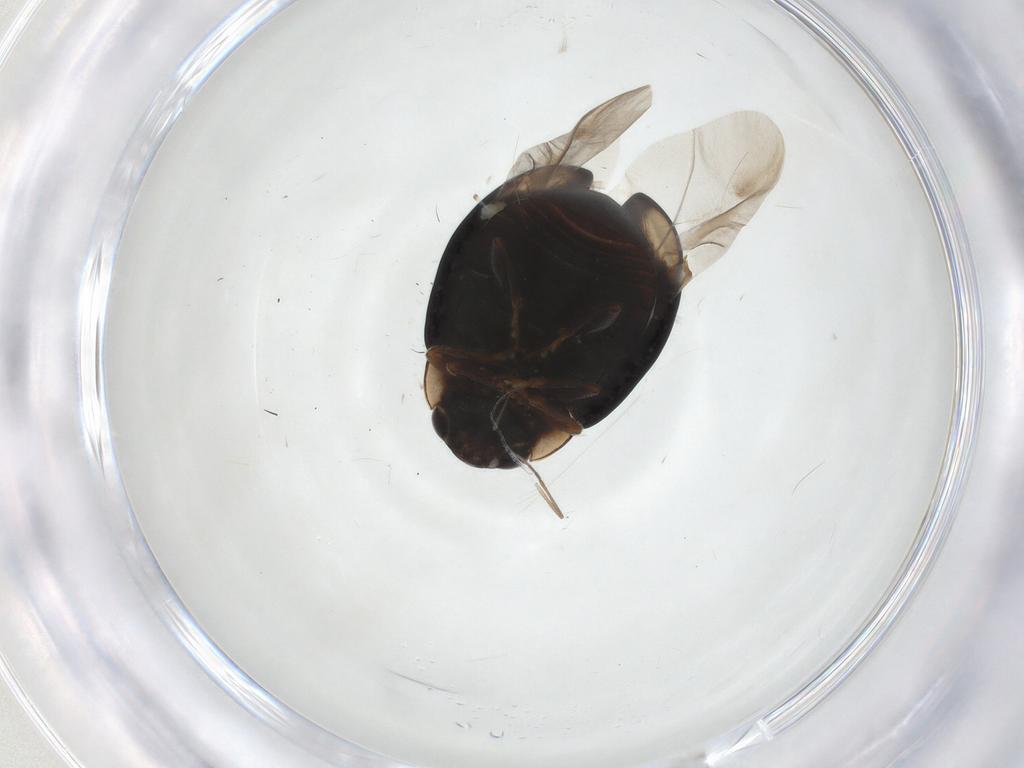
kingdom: Animalia
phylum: Arthropoda
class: Insecta
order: Coleoptera
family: Coccinellidae
